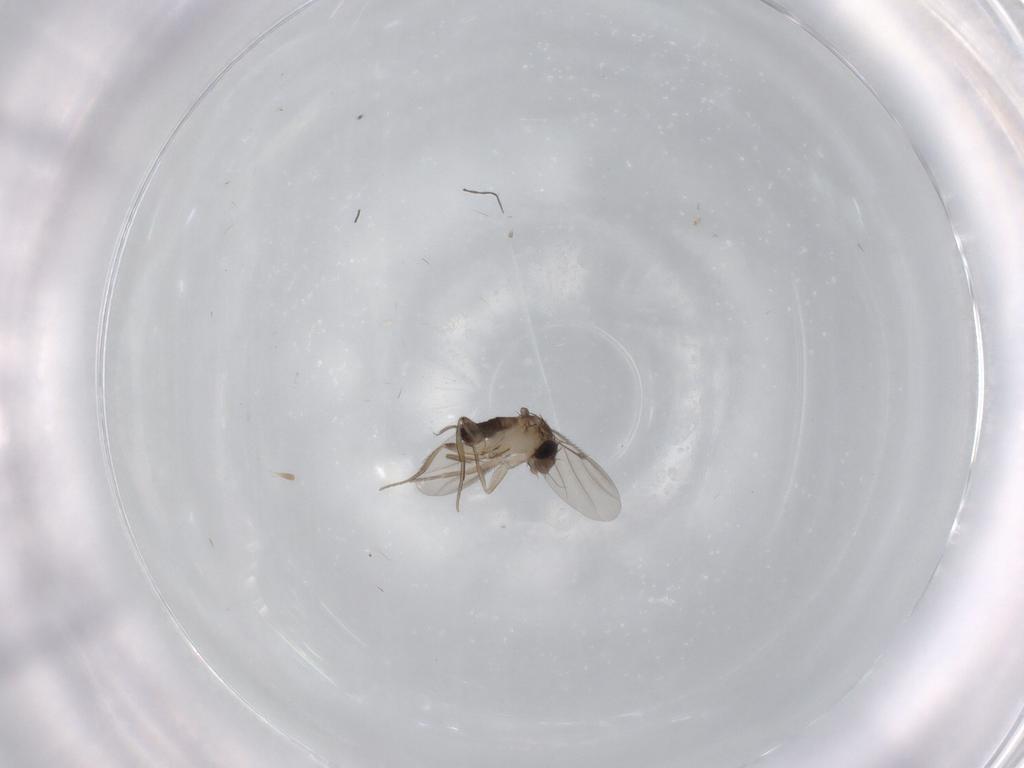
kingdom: Animalia
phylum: Arthropoda
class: Insecta
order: Diptera
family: Phoridae
